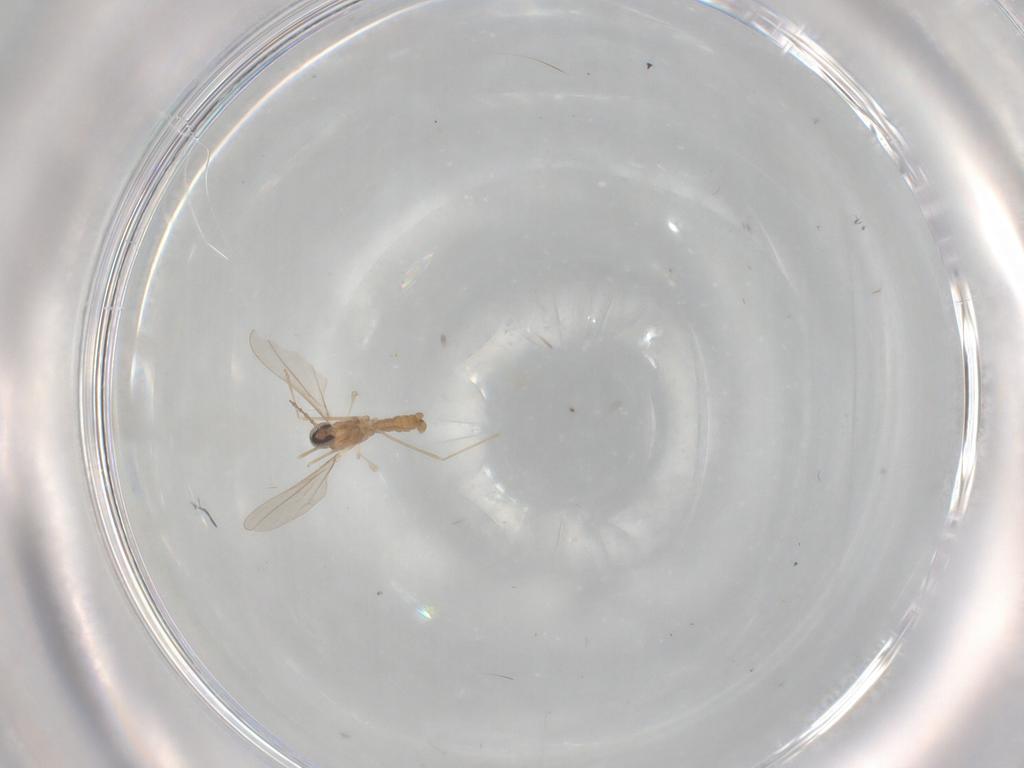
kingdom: Animalia
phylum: Arthropoda
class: Insecta
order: Diptera
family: Cecidomyiidae
